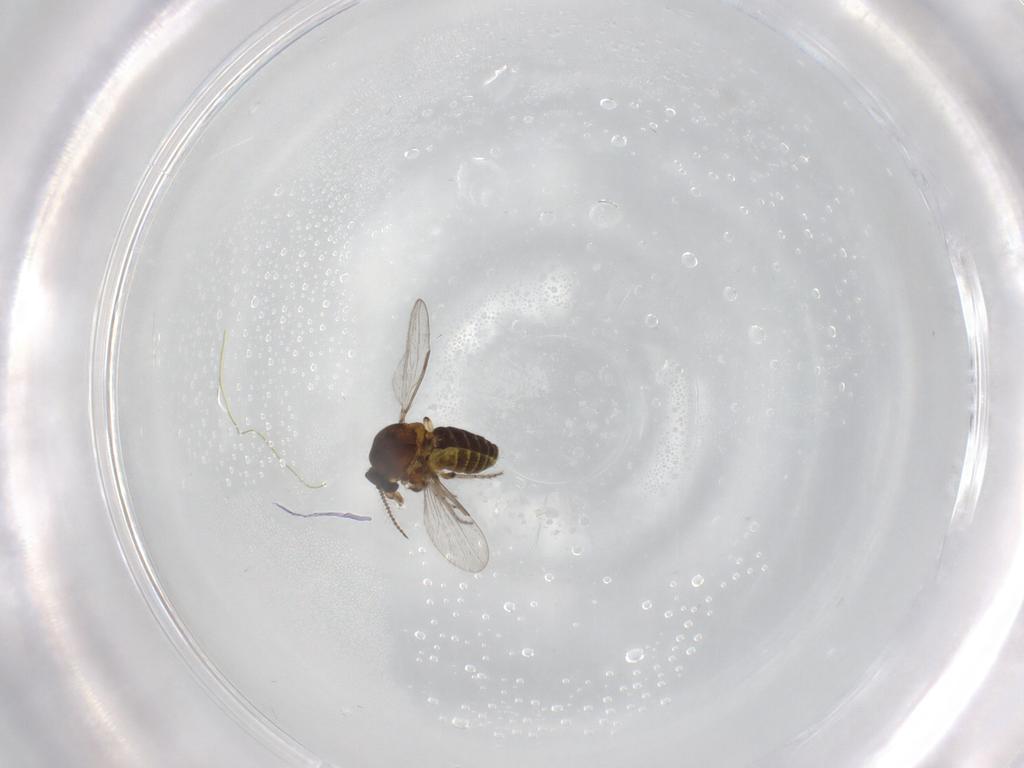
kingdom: Animalia
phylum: Arthropoda
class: Insecta
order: Diptera
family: Ceratopogonidae
